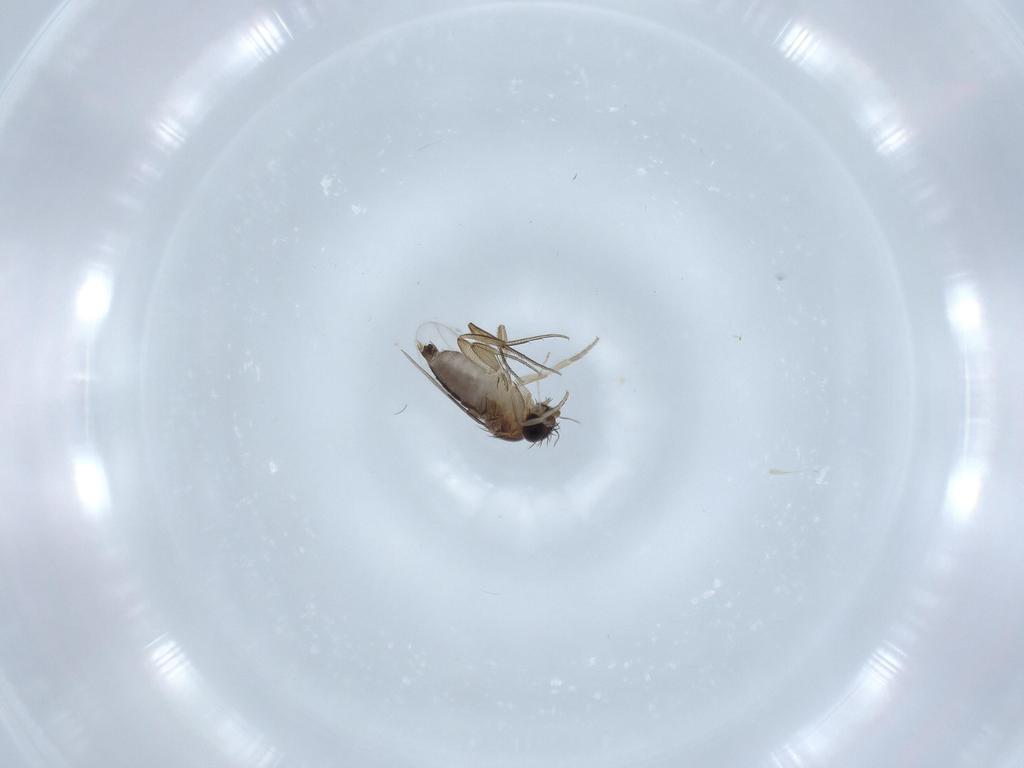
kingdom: Animalia
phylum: Arthropoda
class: Insecta
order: Diptera
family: Phoridae
